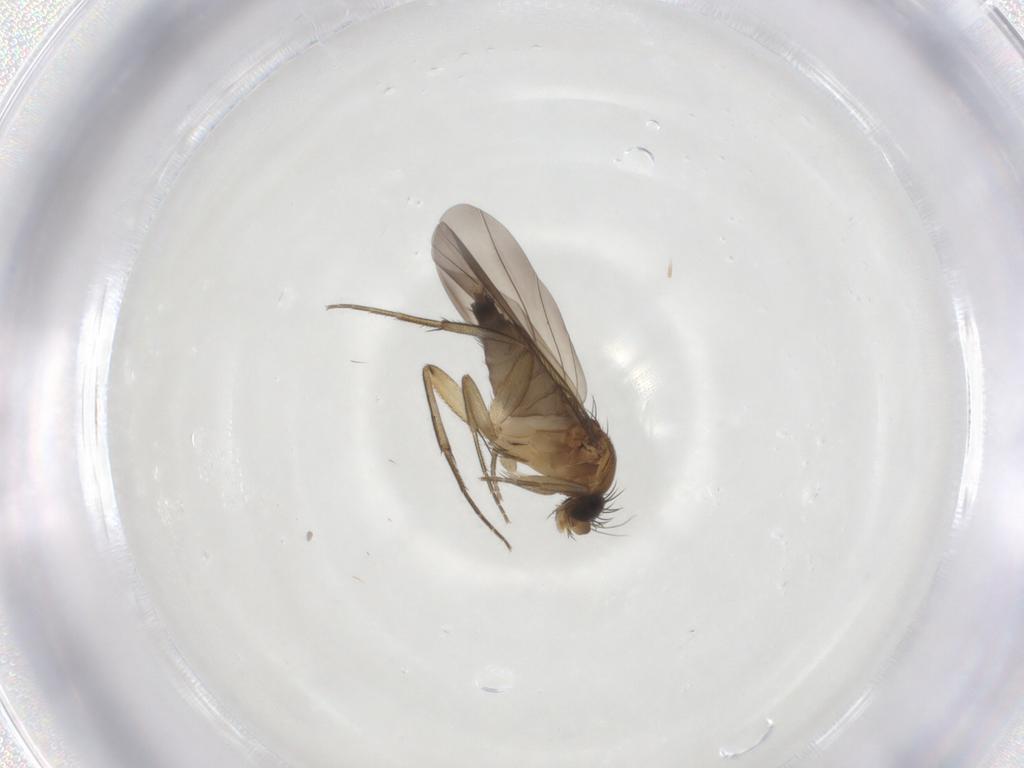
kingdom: Animalia
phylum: Arthropoda
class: Insecta
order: Diptera
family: Phoridae
